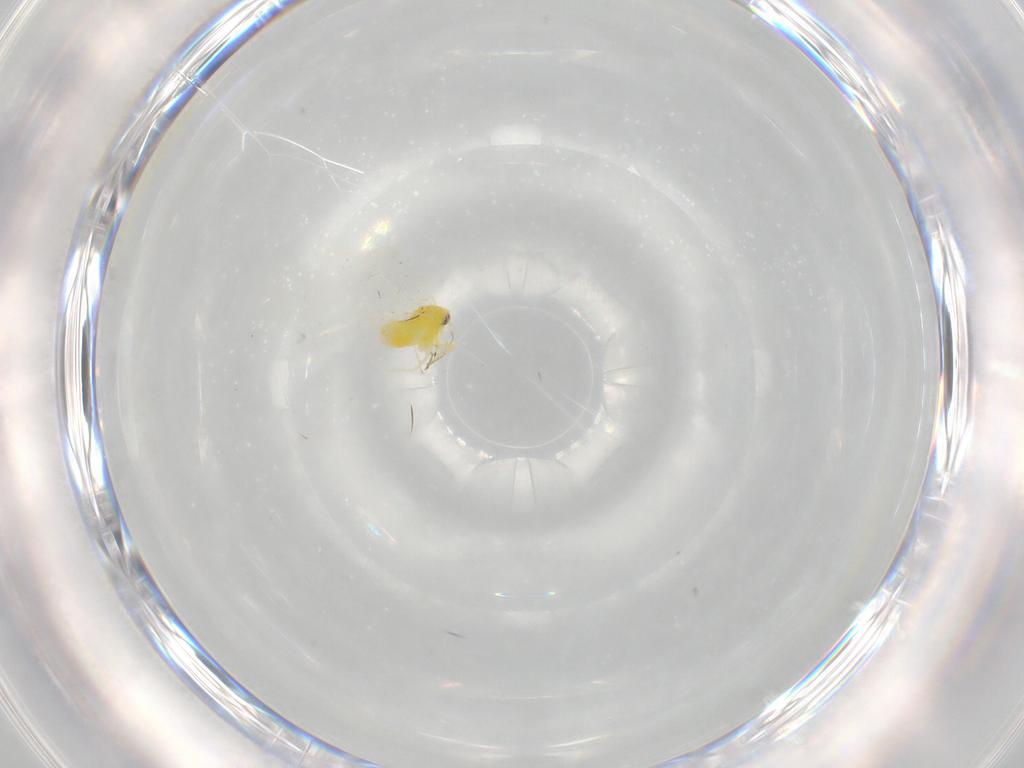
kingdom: Animalia
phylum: Arthropoda
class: Insecta
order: Hemiptera
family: Aleyrodidae
